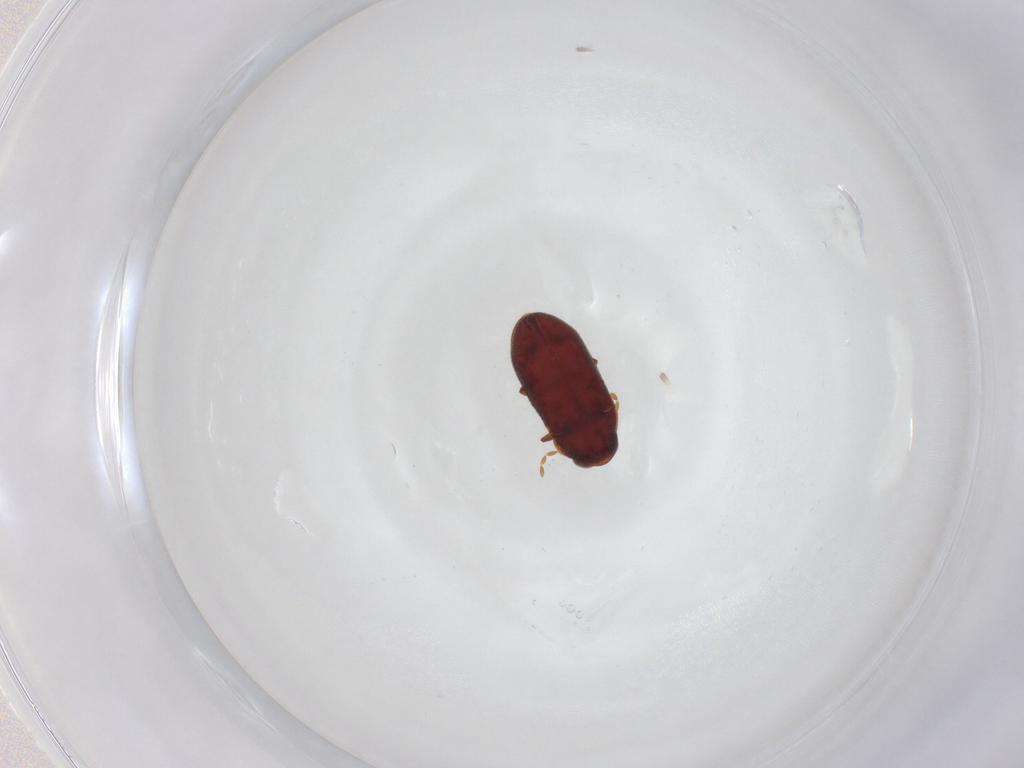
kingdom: Animalia
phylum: Arthropoda
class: Insecta
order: Coleoptera
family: Ptinidae
